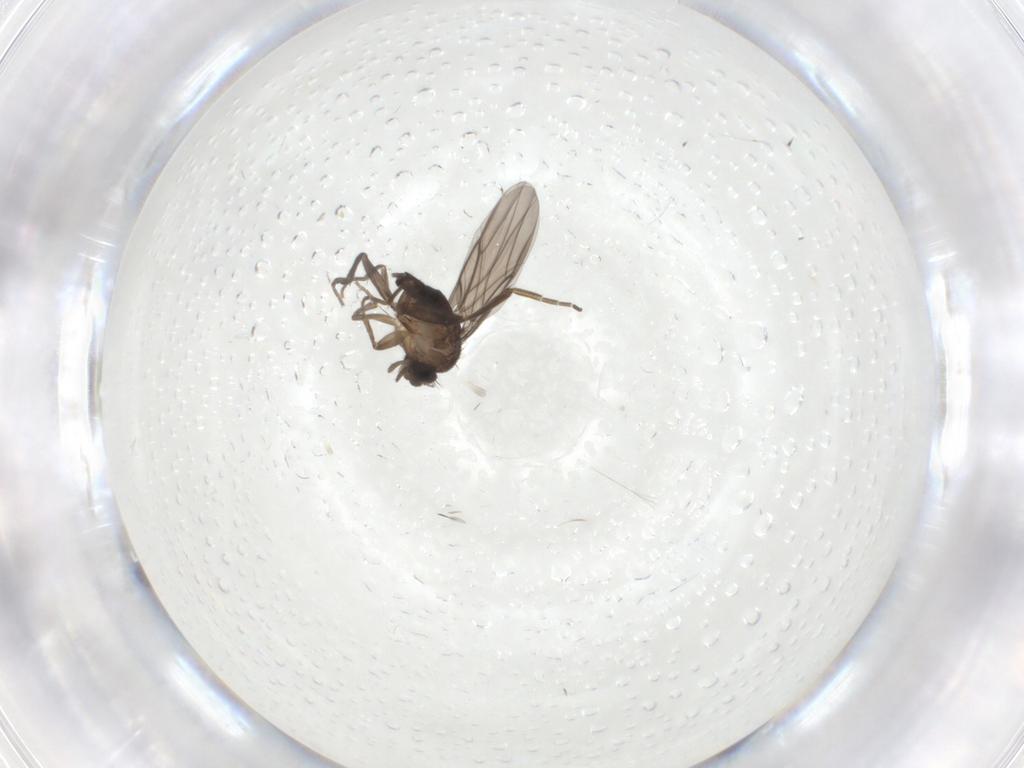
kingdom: Animalia
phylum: Arthropoda
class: Insecta
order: Diptera
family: Phoridae
